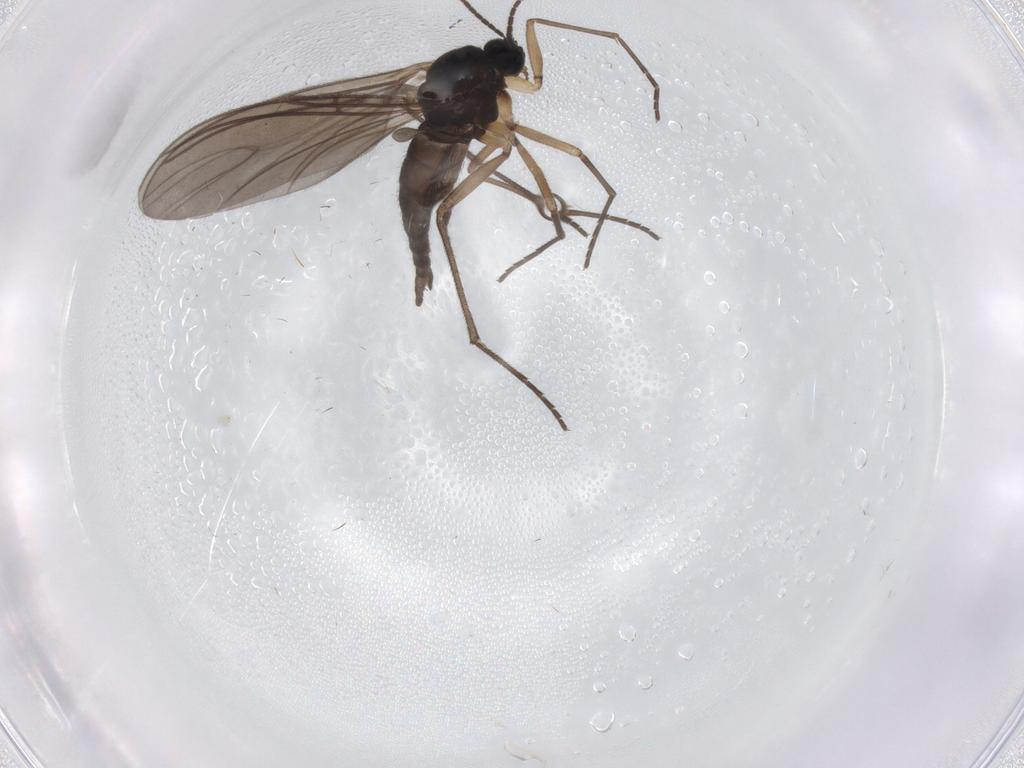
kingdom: Animalia
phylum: Arthropoda
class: Insecta
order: Diptera
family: Sciaridae
